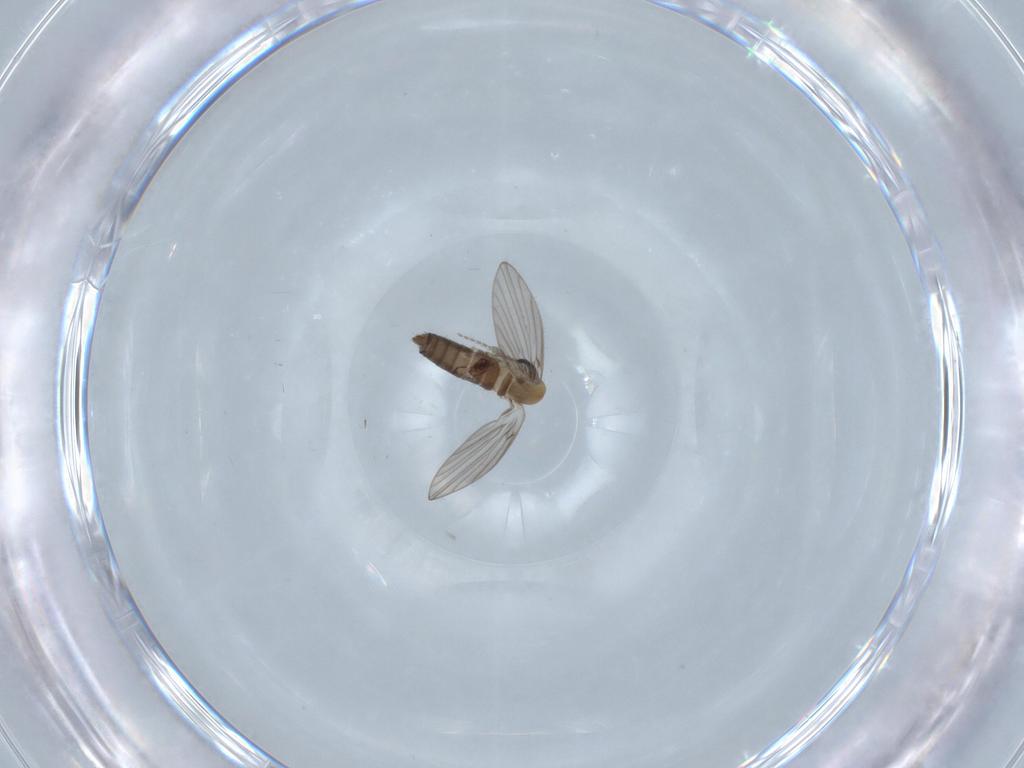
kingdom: Animalia
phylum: Arthropoda
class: Insecta
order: Diptera
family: Psychodidae
